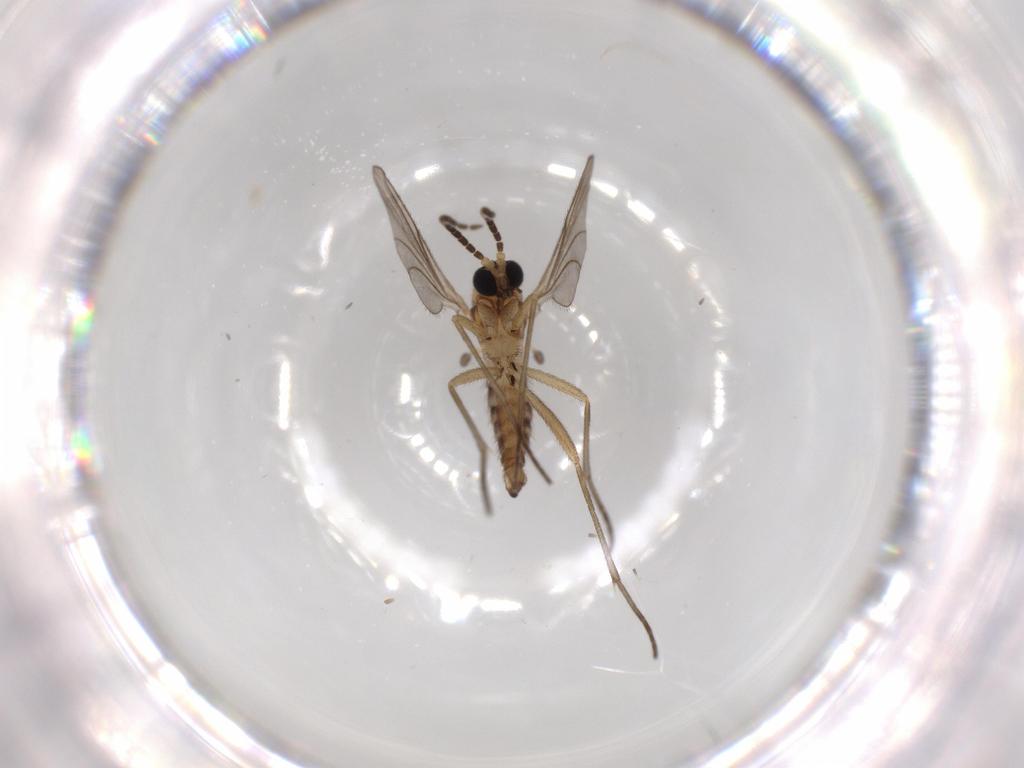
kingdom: Animalia
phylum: Arthropoda
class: Insecta
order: Diptera
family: Sciaridae
